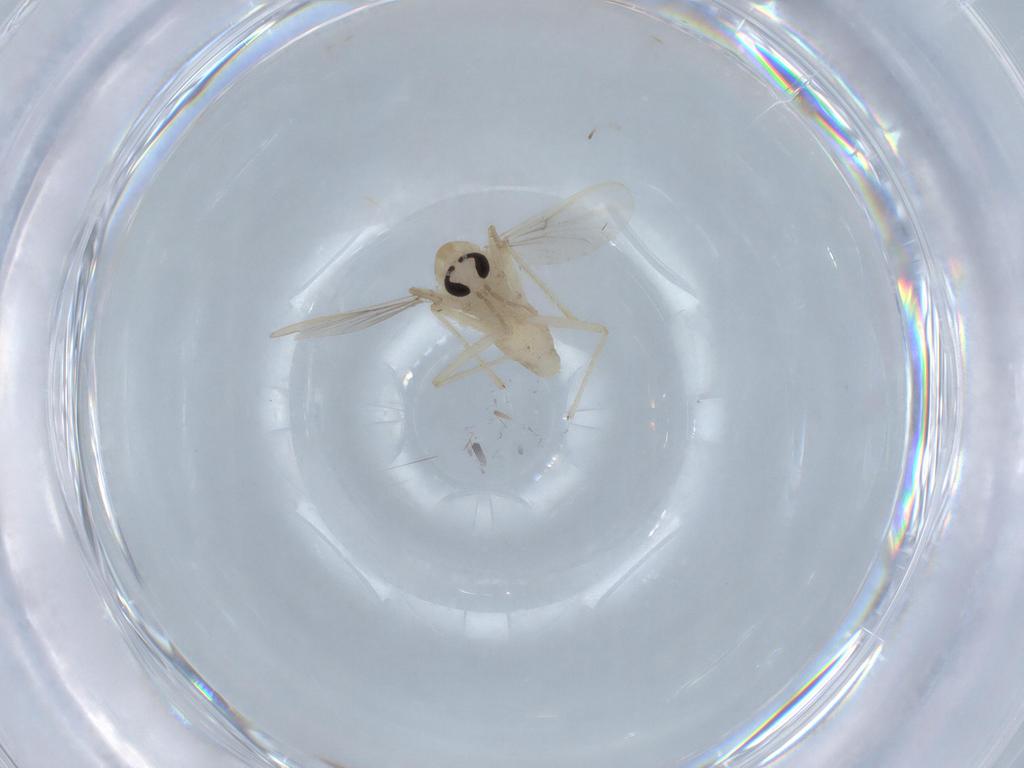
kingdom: Animalia
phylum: Arthropoda
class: Insecta
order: Diptera
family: Chironomidae
